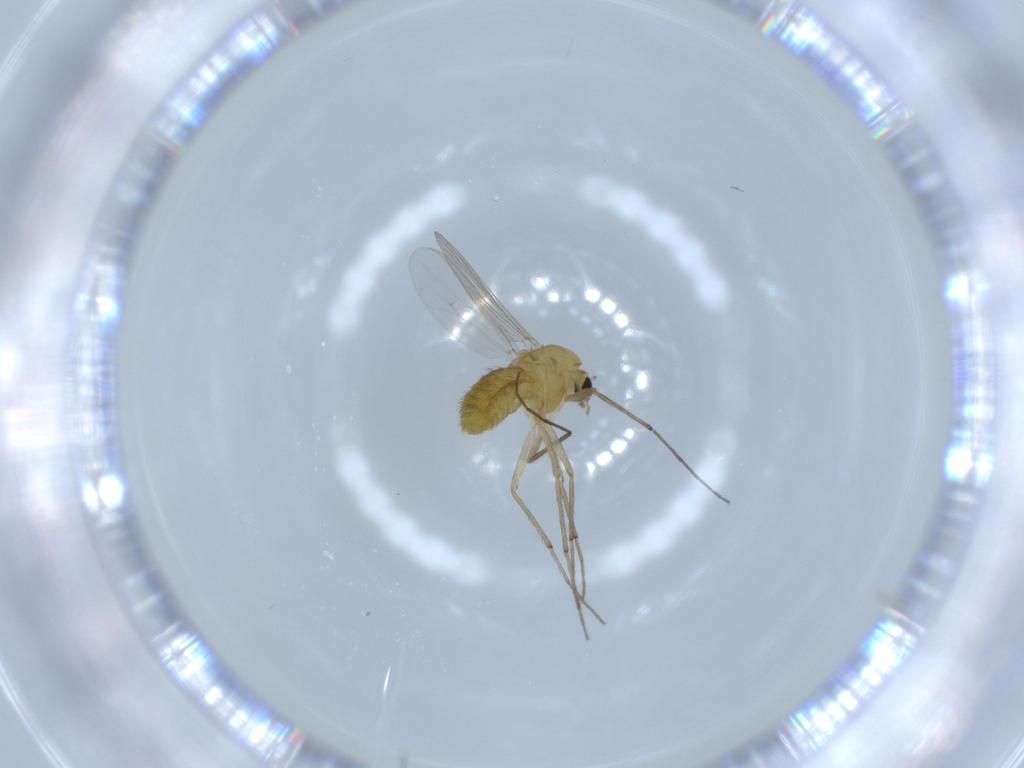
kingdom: Animalia
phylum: Arthropoda
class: Insecta
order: Diptera
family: Chironomidae
